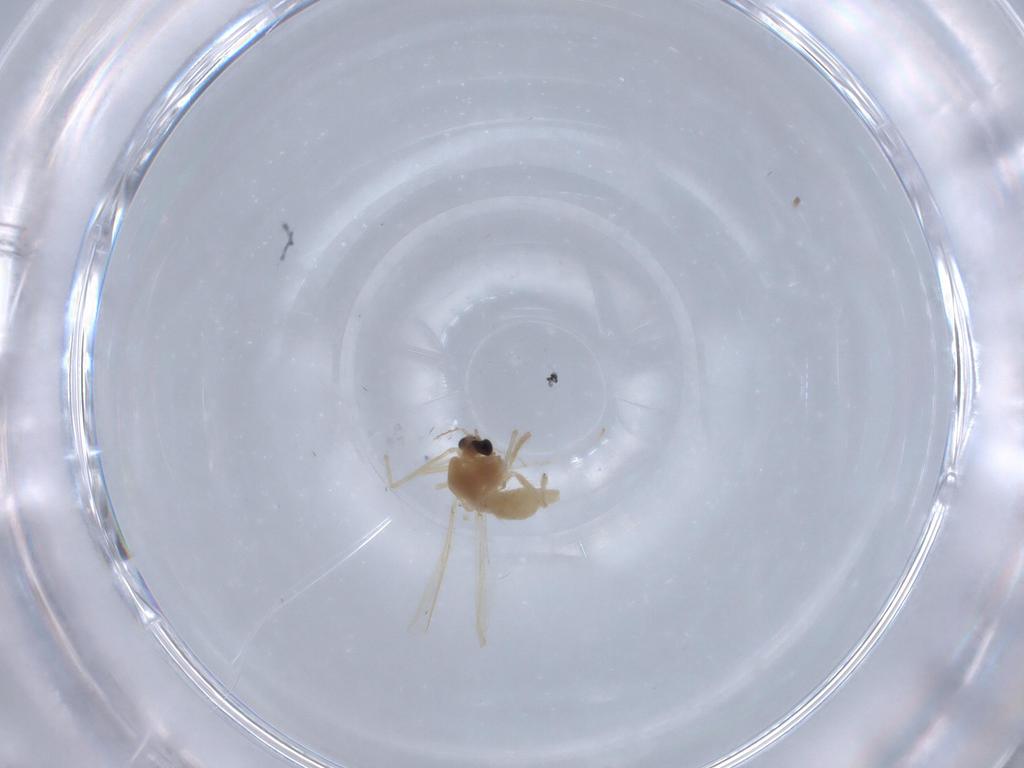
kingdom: Animalia
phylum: Arthropoda
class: Insecta
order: Diptera
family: Chironomidae
